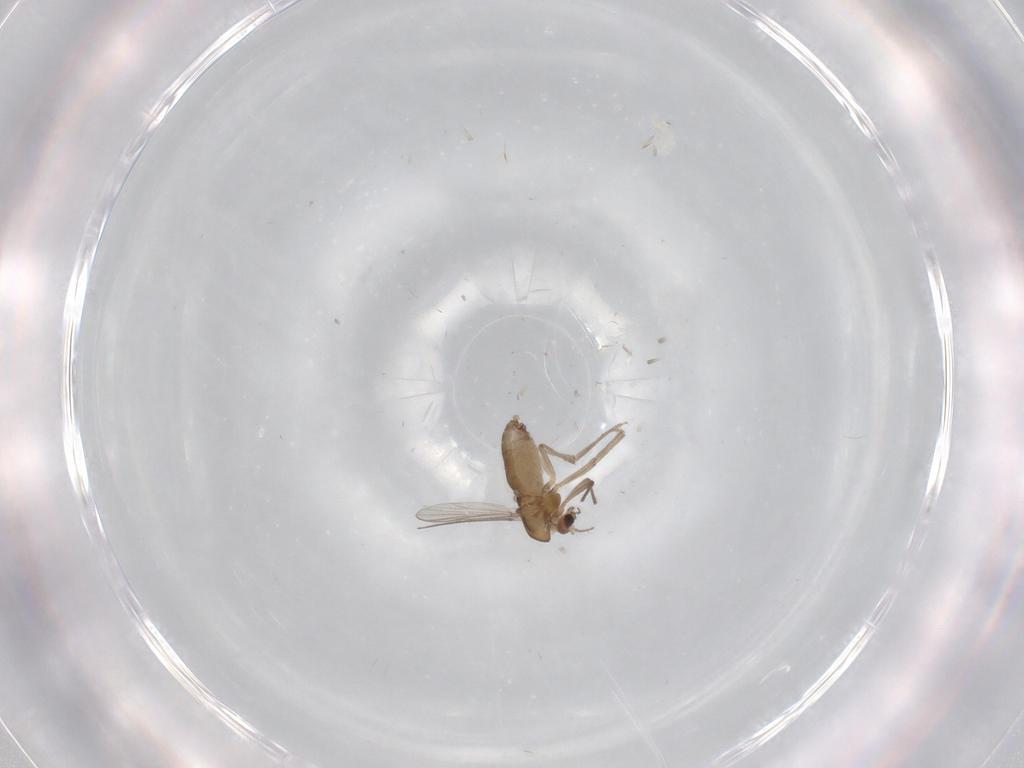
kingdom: Animalia
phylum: Arthropoda
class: Insecta
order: Diptera
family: Chironomidae
